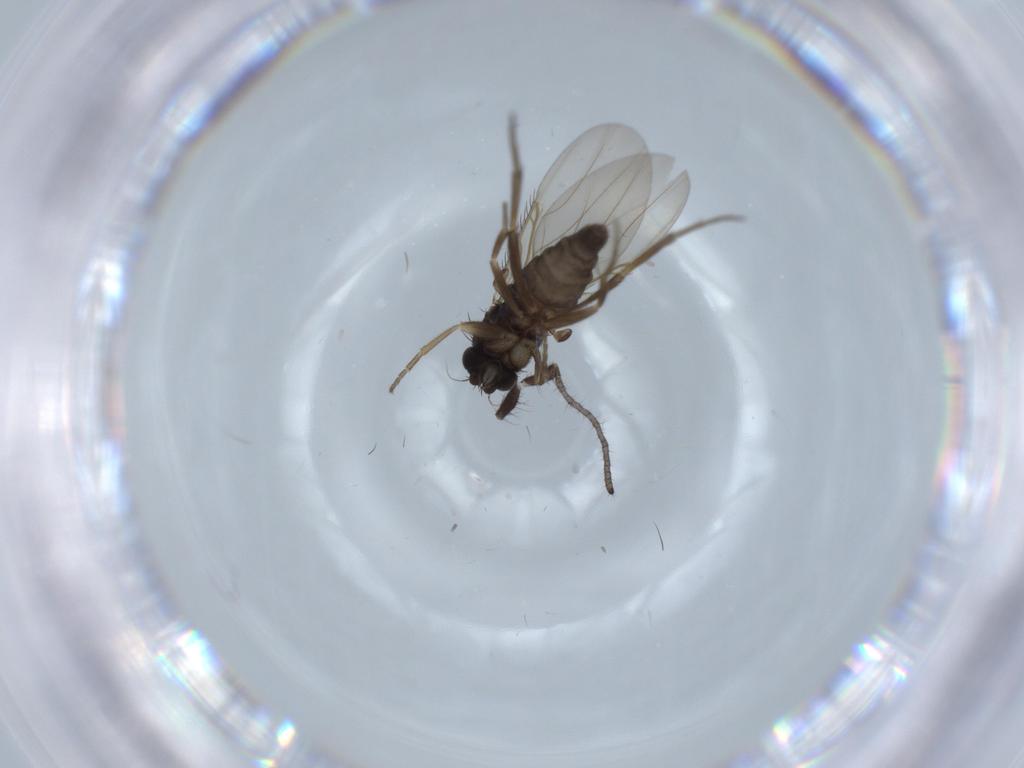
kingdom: Animalia
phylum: Arthropoda
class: Insecta
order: Diptera
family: Phoridae
